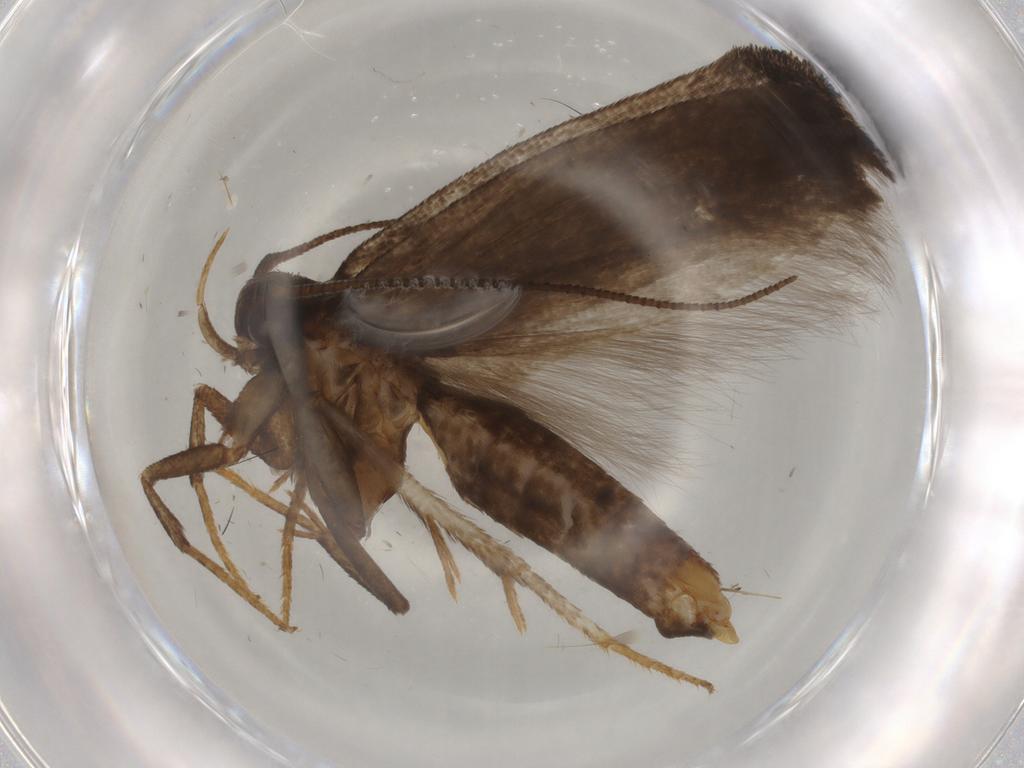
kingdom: Animalia
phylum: Arthropoda
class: Insecta
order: Lepidoptera
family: Gelechiidae
